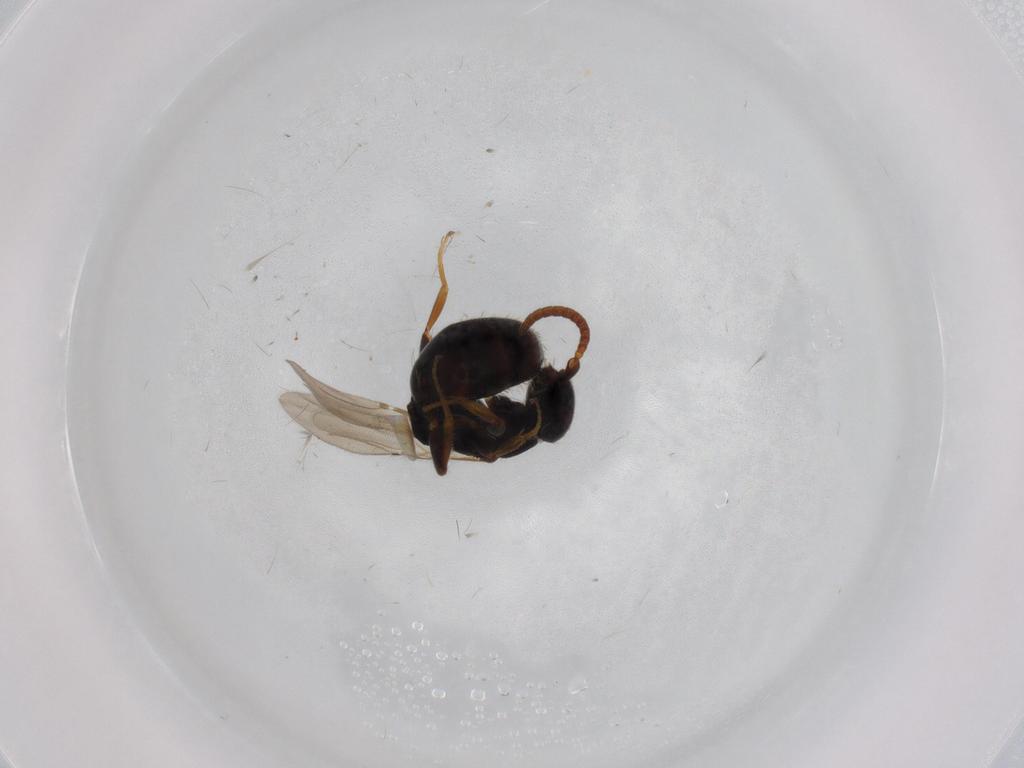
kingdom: Animalia
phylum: Arthropoda
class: Insecta
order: Hymenoptera
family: Bethylidae
